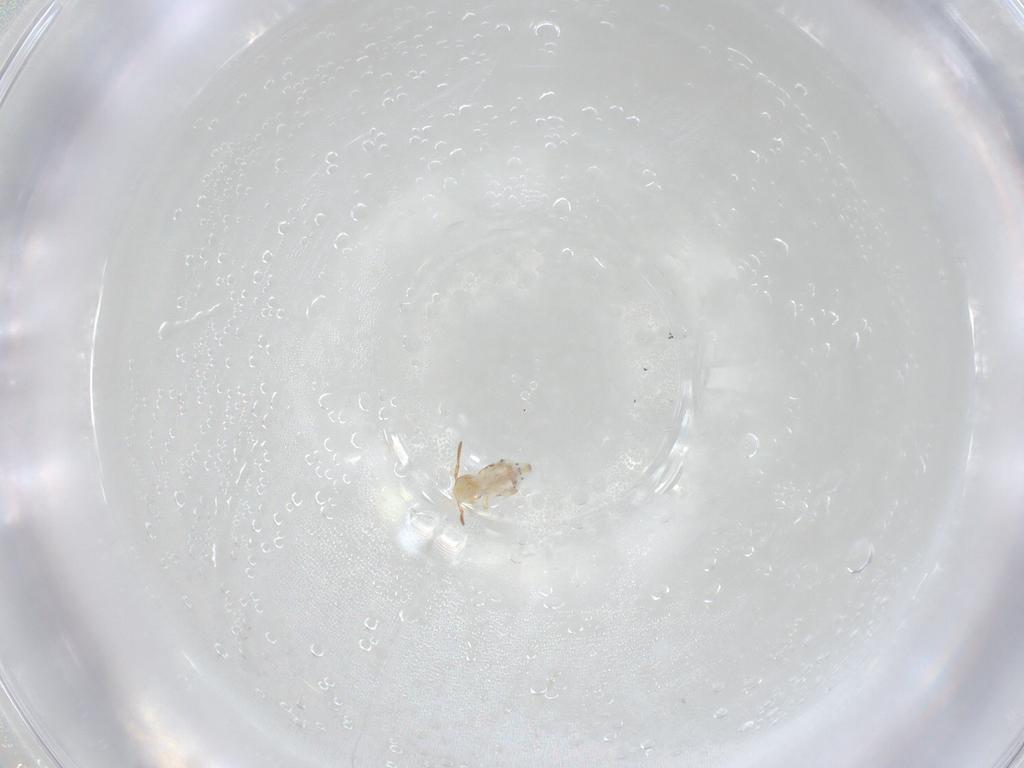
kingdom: Animalia
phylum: Arthropoda
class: Collembola
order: Symphypleona
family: Bourletiellidae
